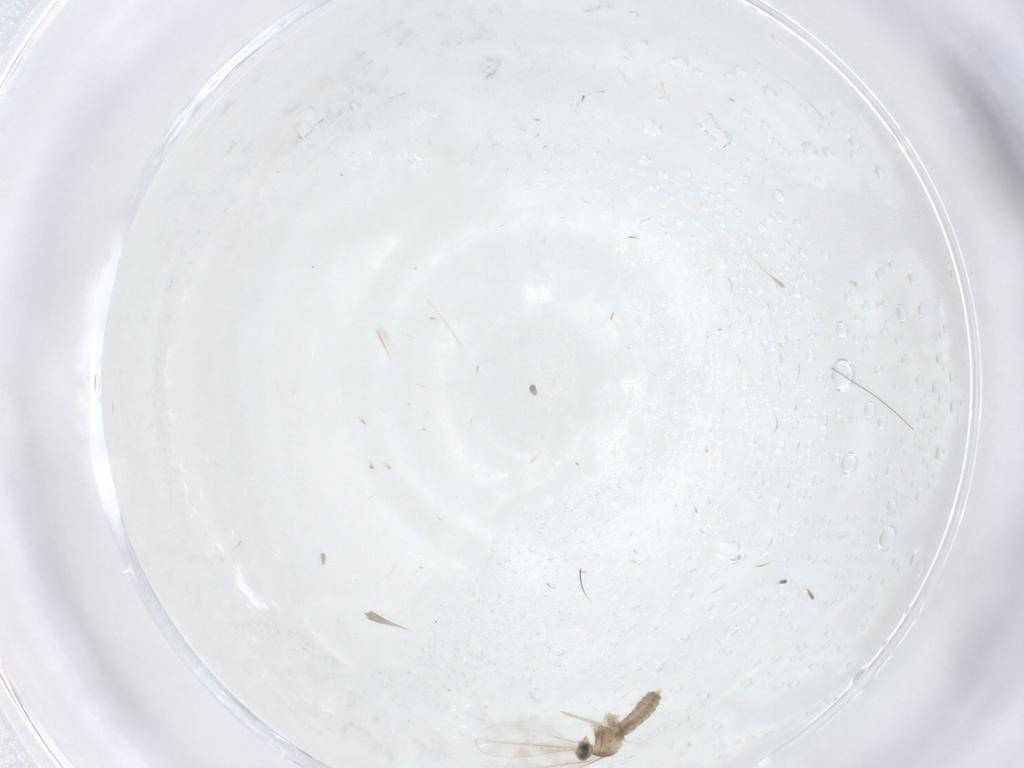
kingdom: Animalia
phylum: Arthropoda
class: Insecta
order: Diptera
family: Cecidomyiidae
